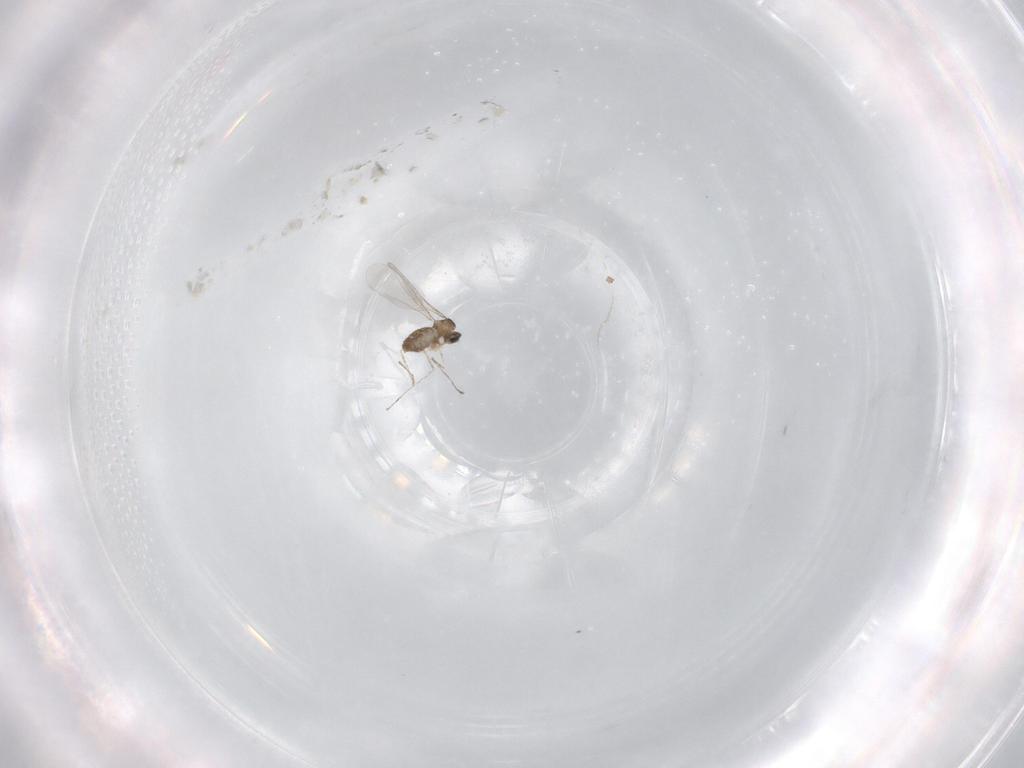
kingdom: Animalia
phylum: Arthropoda
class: Insecta
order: Diptera
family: Cecidomyiidae
